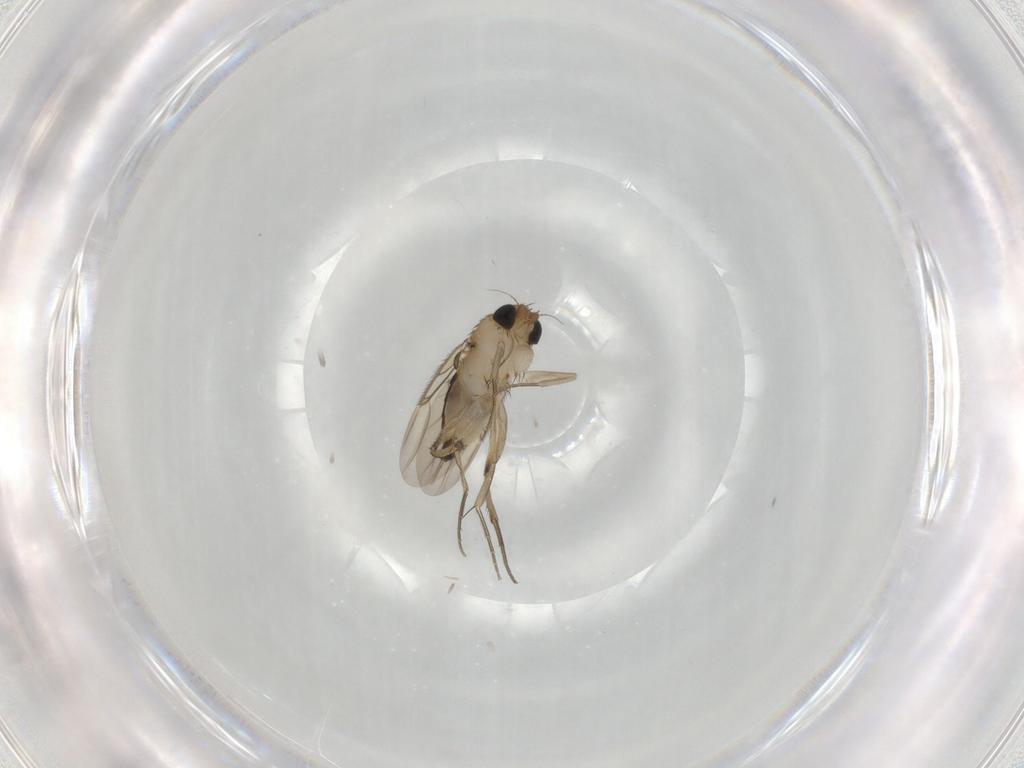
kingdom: Animalia
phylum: Arthropoda
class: Insecta
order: Diptera
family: Phoridae
